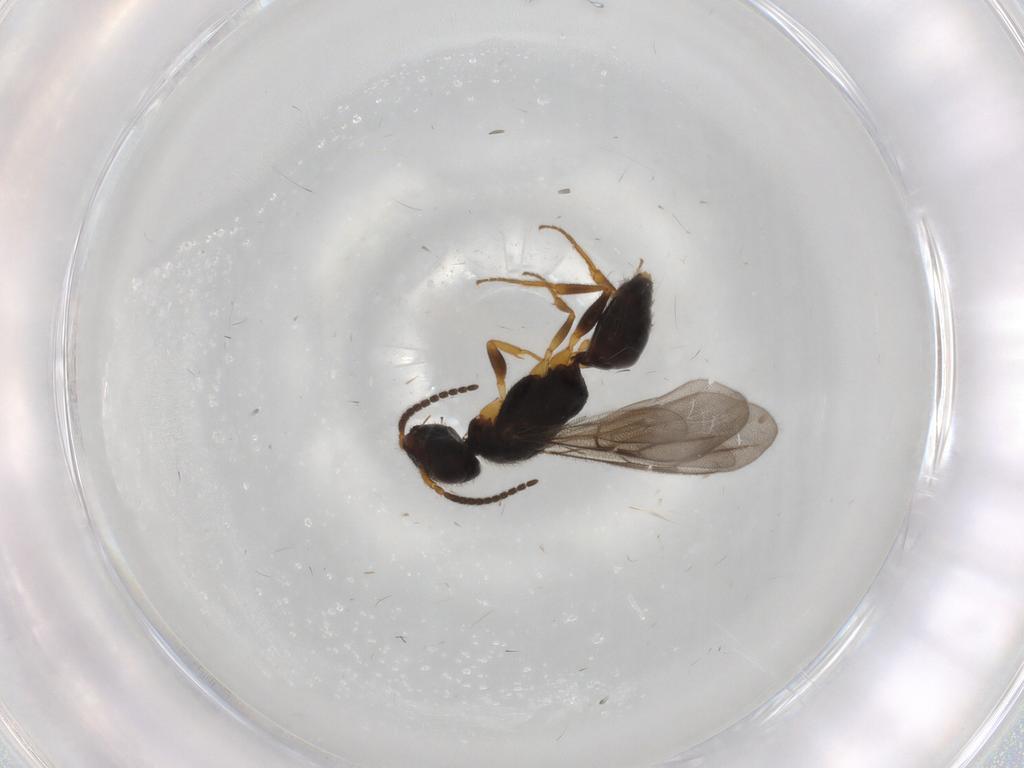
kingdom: Animalia
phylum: Arthropoda
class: Insecta
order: Hymenoptera
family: Bethylidae
